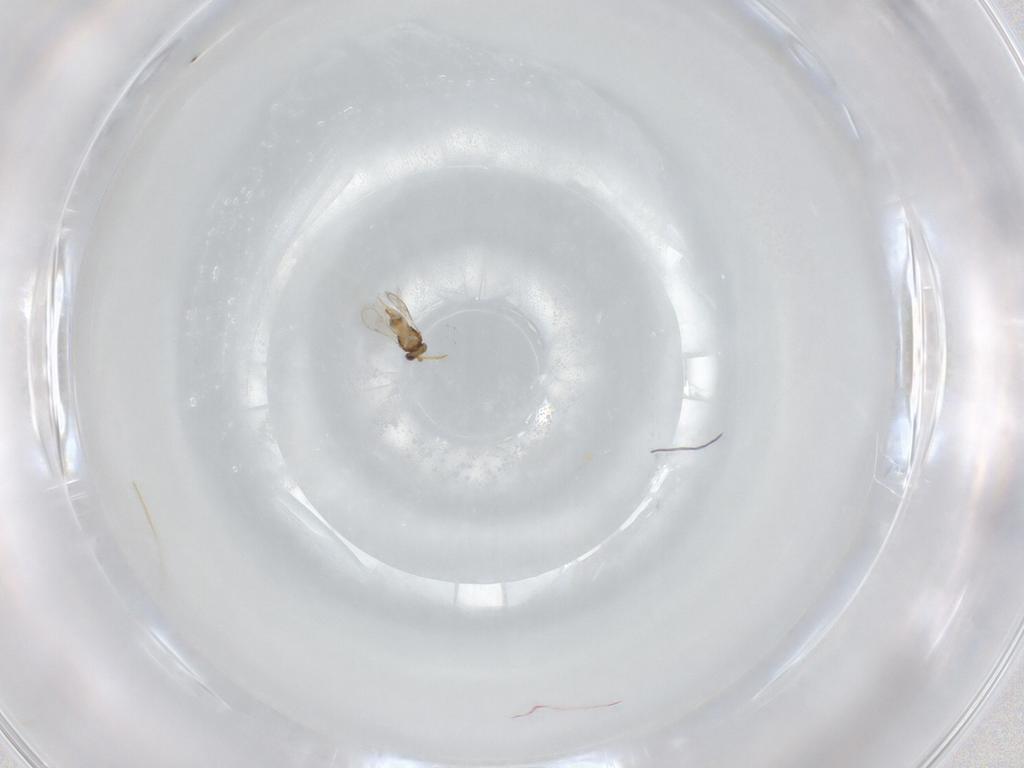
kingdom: Animalia
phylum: Arthropoda
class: Insecta
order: Hymenoptera
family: Aphelinidae
